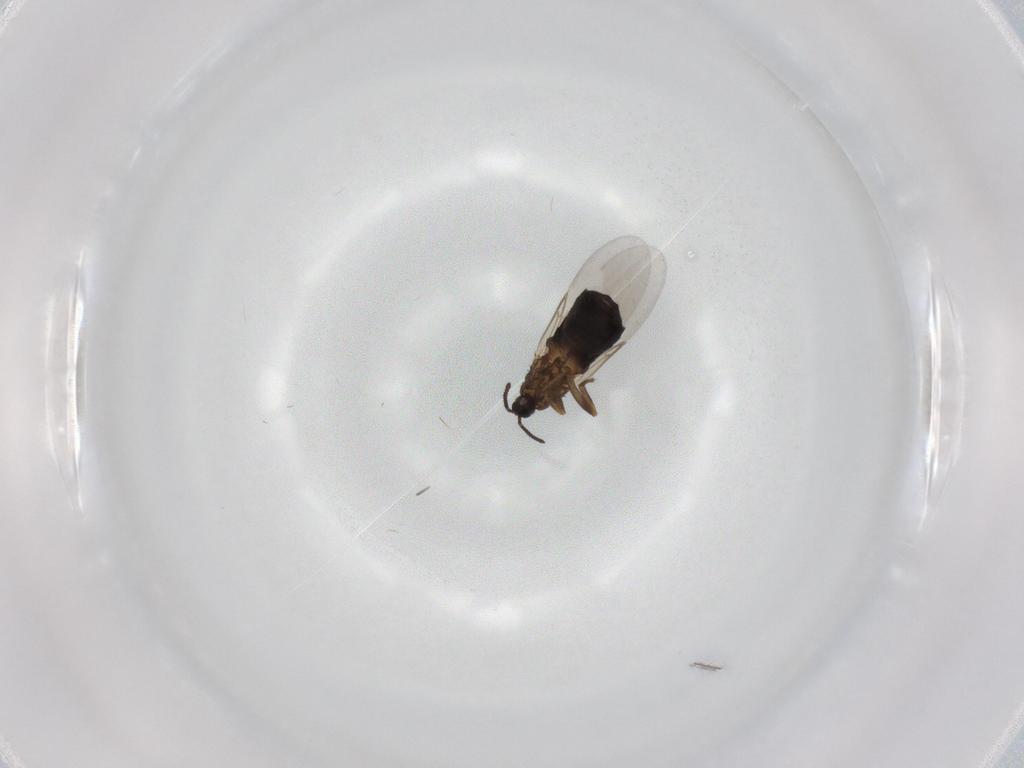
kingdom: Animalia
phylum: Arthropoda
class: Insecta
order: Diptera
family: Scatopsidae
